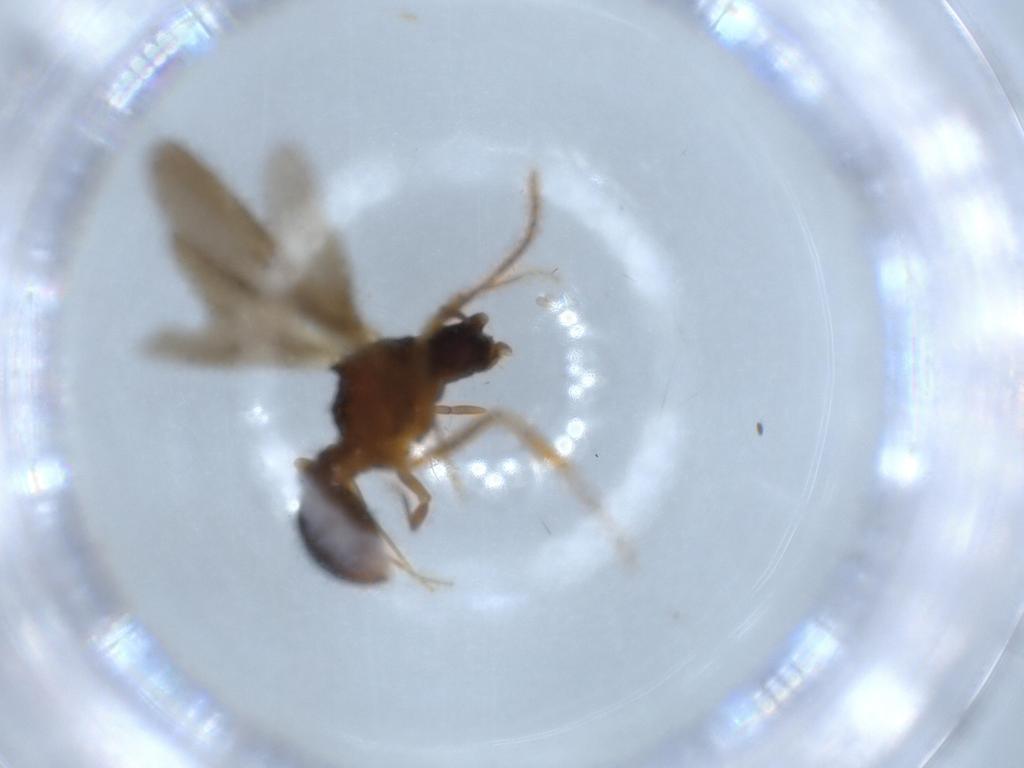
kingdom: Animalia
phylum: Arthropoda
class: Insecta
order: Hymenoptera
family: Formicidae
